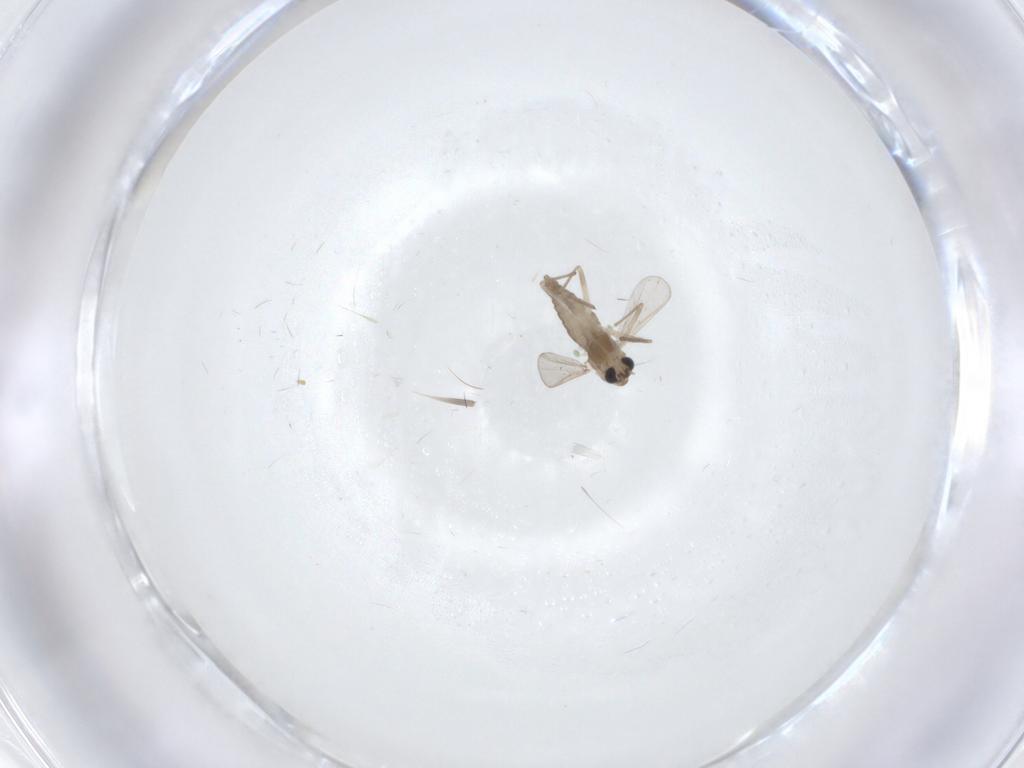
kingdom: Animalia
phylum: Arthropoda
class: Insecta
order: Diptera
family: Chironomidae
